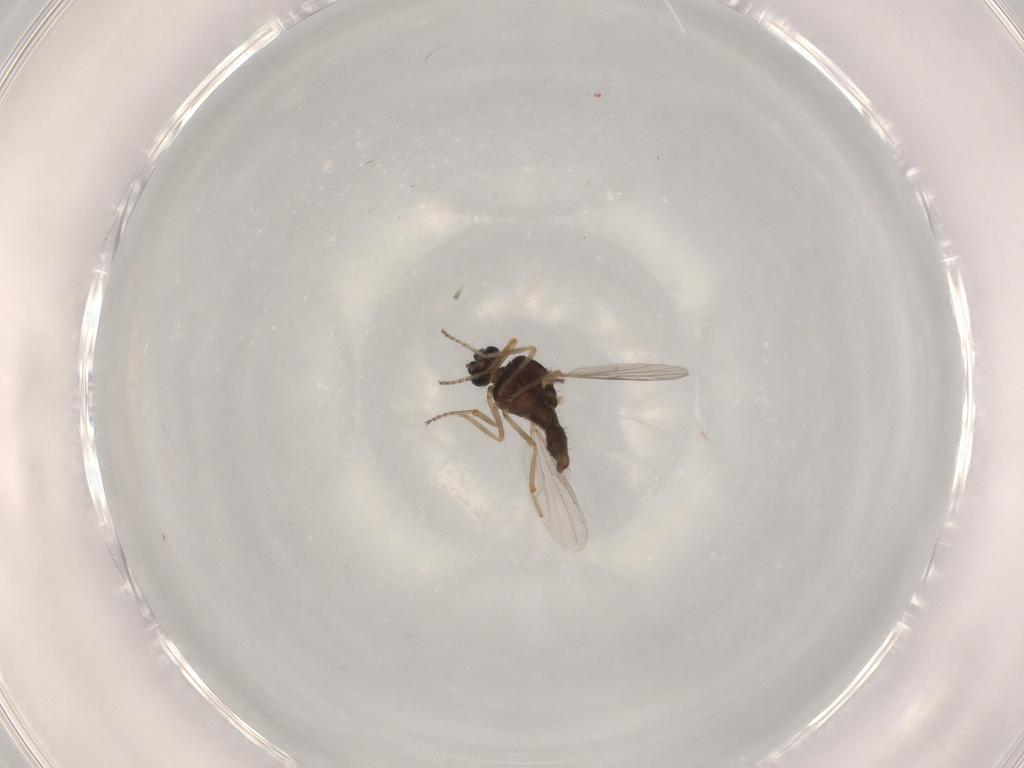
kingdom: Animalia
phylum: Arthropoda
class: Insecta
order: Diptera
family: Ceratopogonidae
